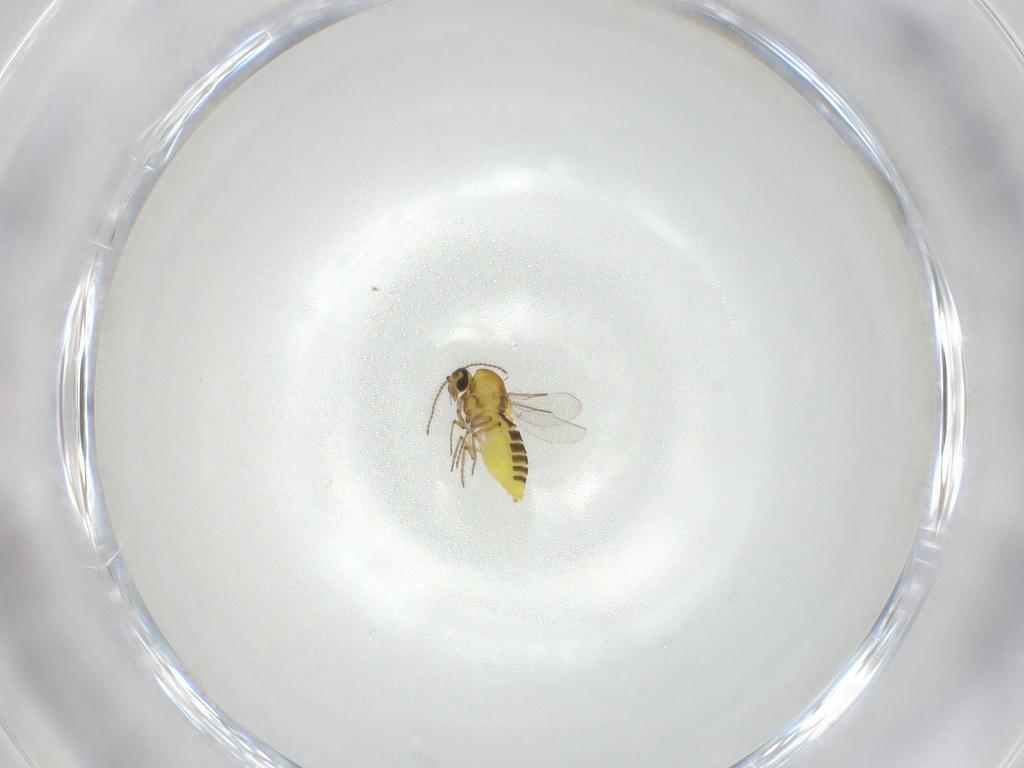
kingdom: Animalia
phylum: Arthropoda
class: Insecta
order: Diptera
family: Ceratopogonidae
